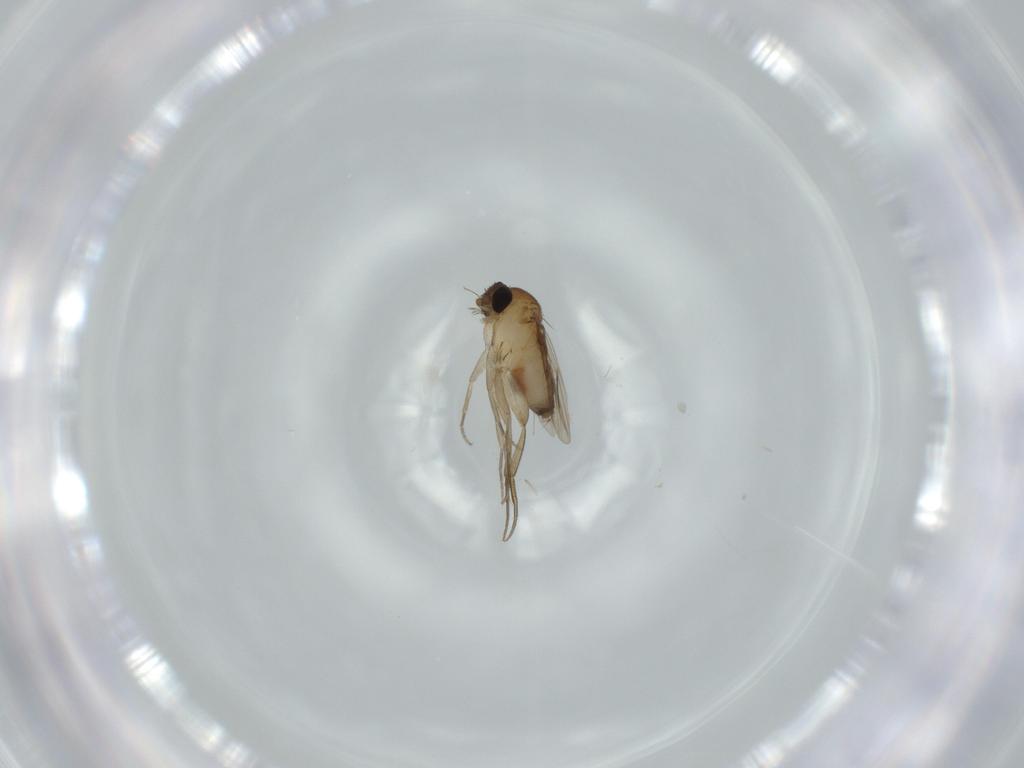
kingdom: Animalia
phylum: Arthropoda
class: Insecta
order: Diptera
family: Phoridae
